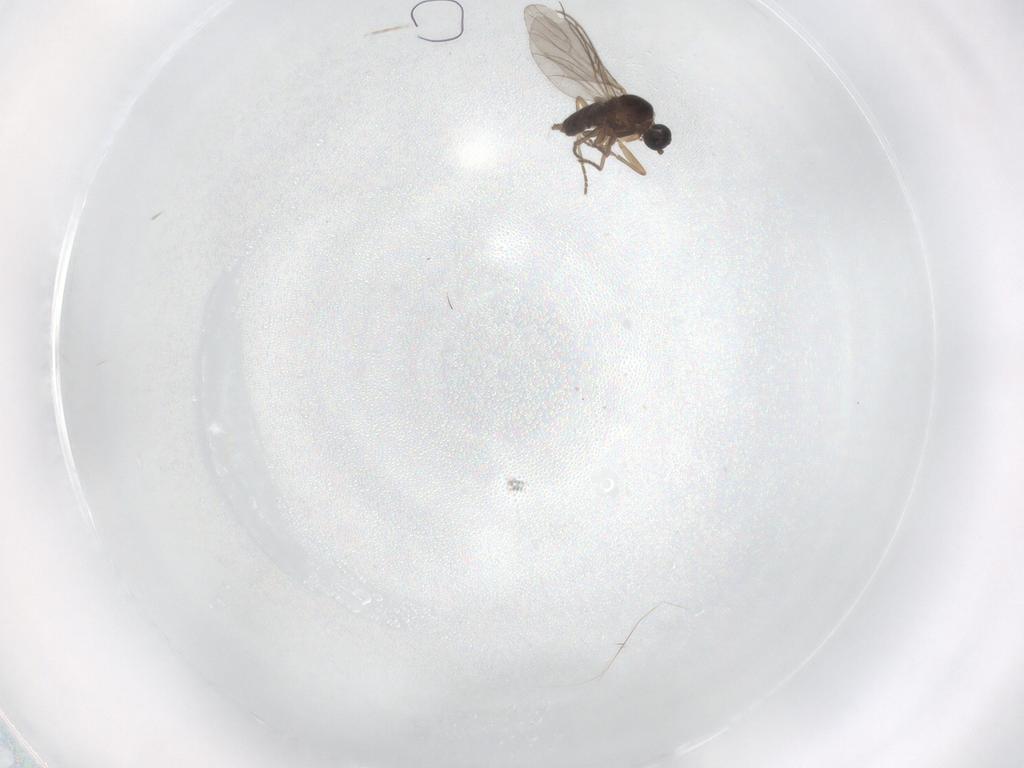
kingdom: Animalia
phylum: Arthropoda
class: Insecta
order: Diptera
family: Sciaridae
